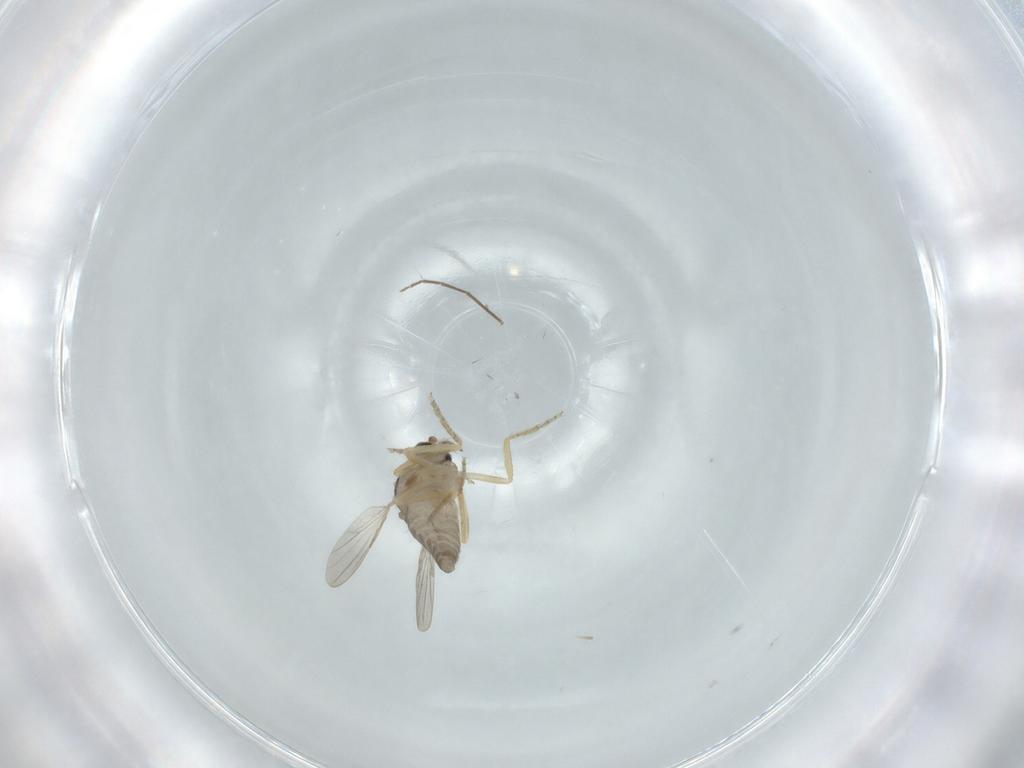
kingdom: Animalia
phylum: Arthropoda
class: Insecta
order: Diptera
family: Ceratopogonidae
